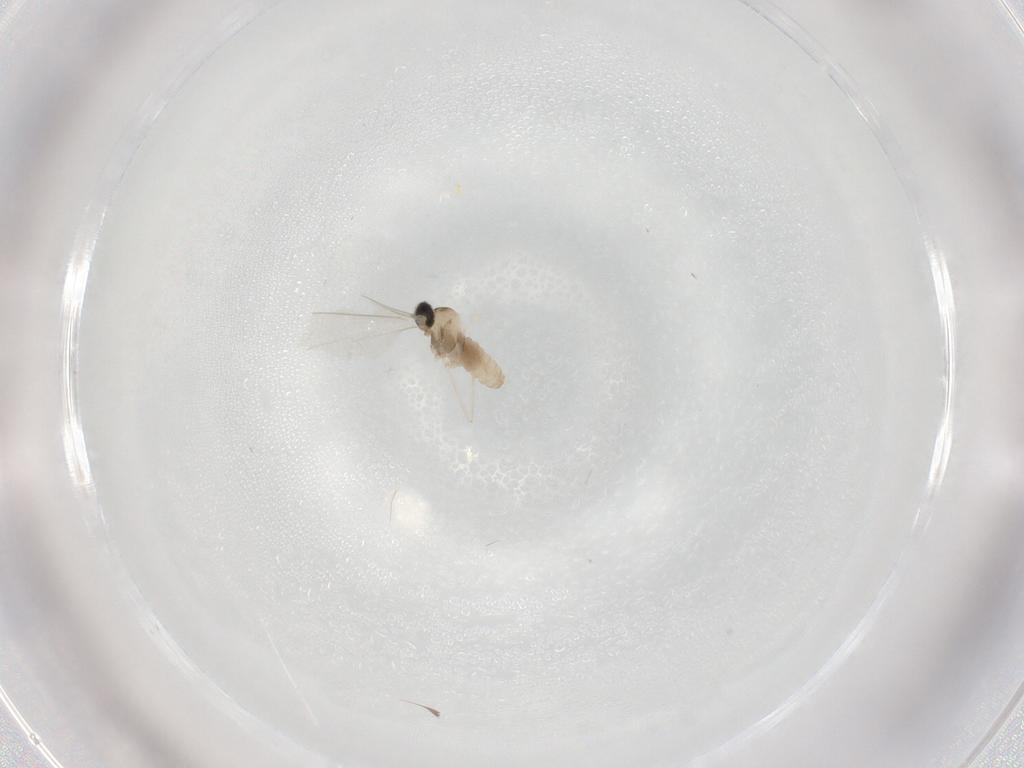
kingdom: Animalia
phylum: Arthropoda
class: Insecta
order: Diptera
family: Cecidomyiidae
